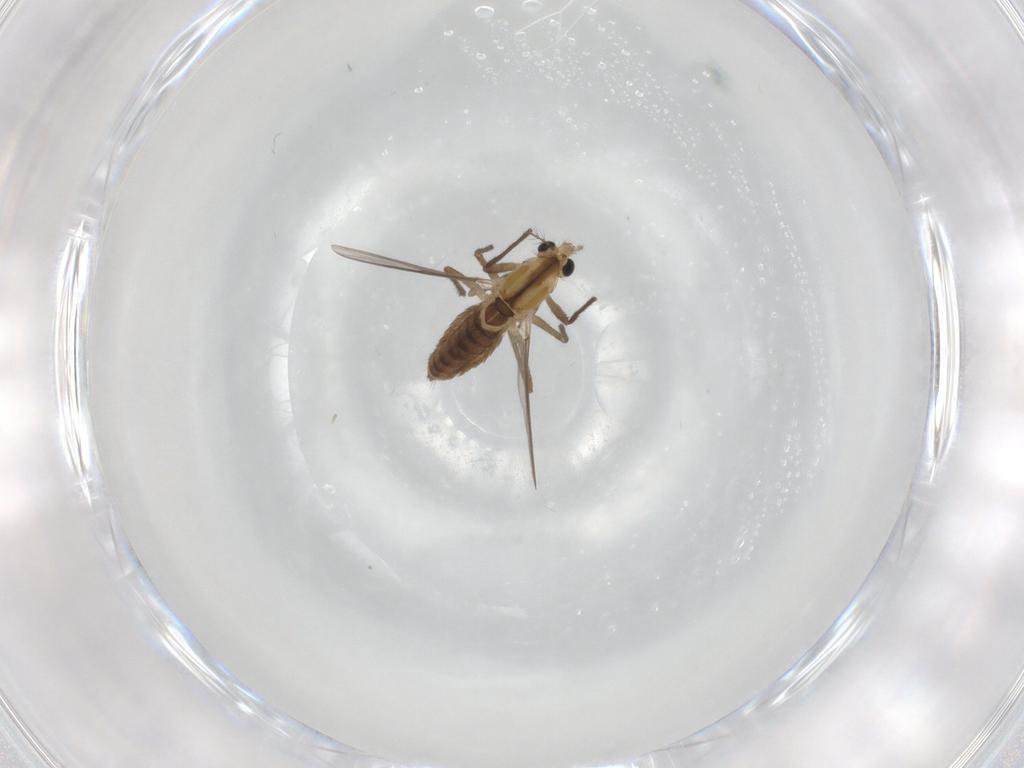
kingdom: Animalia
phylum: Arthropoda
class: Insecta
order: Diptera
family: Chironomidae
